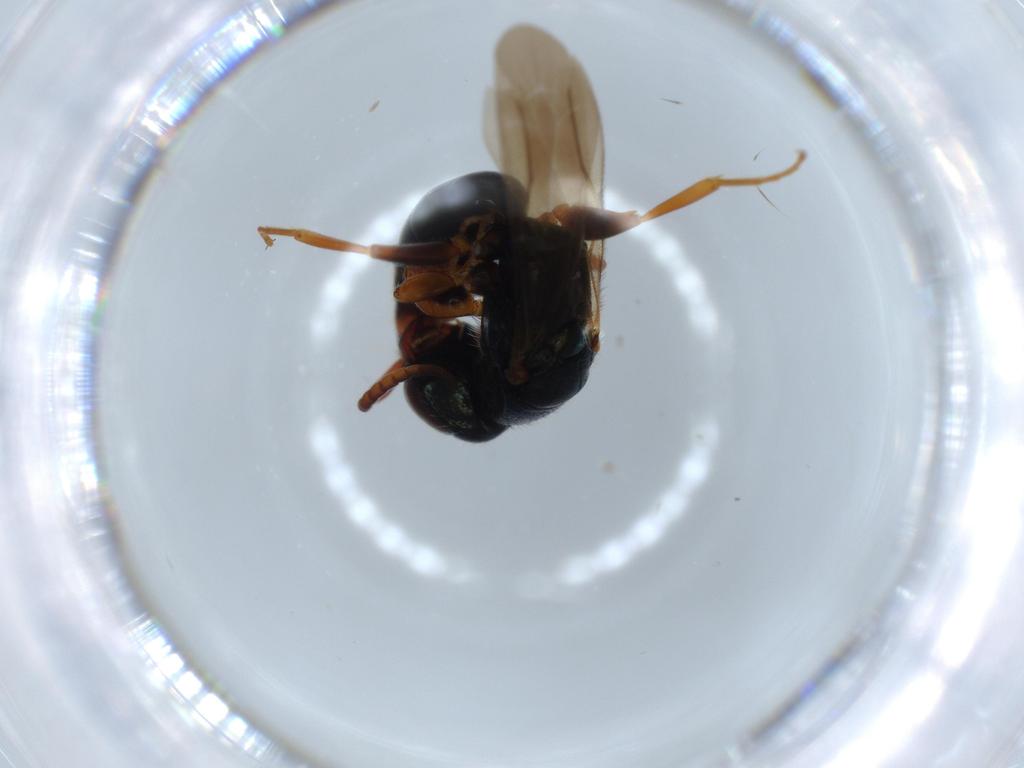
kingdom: Animalia
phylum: Arthropoda
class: Insecta
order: Hymenoptera
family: Bethylidae
